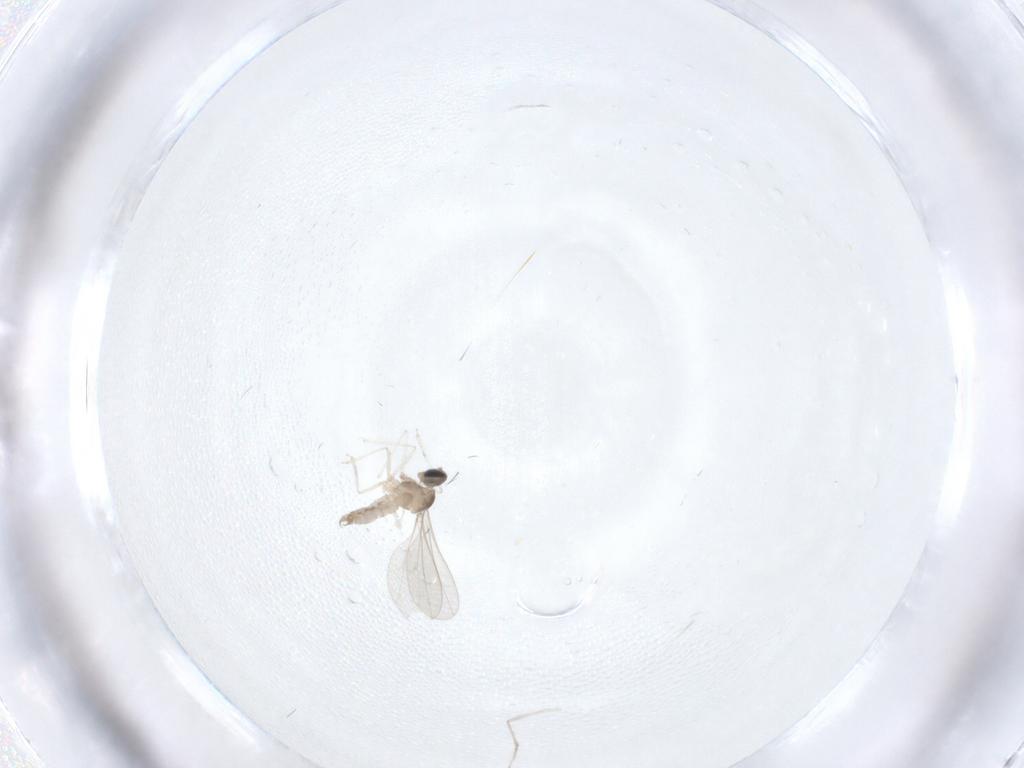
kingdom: Animalia
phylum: Arthropoda
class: Insecta
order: Diptera
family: Cecidomyiidae
